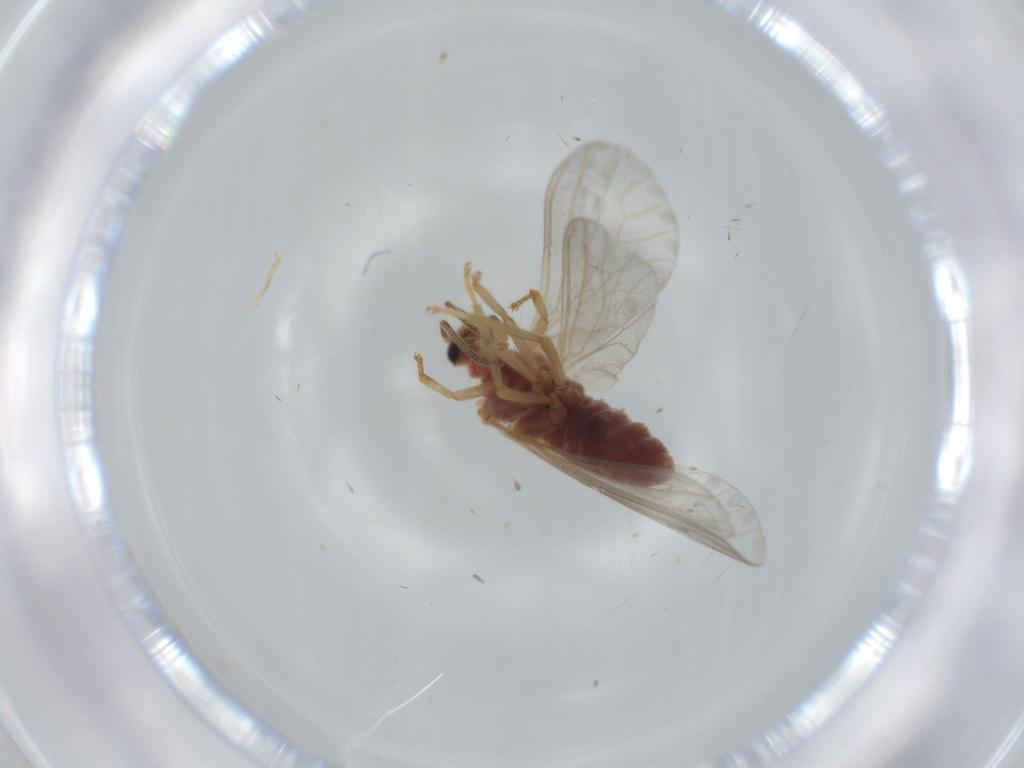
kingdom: Animalia
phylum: Arthropoda
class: Insecta
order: Neuroptera
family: Coniopterygidae
